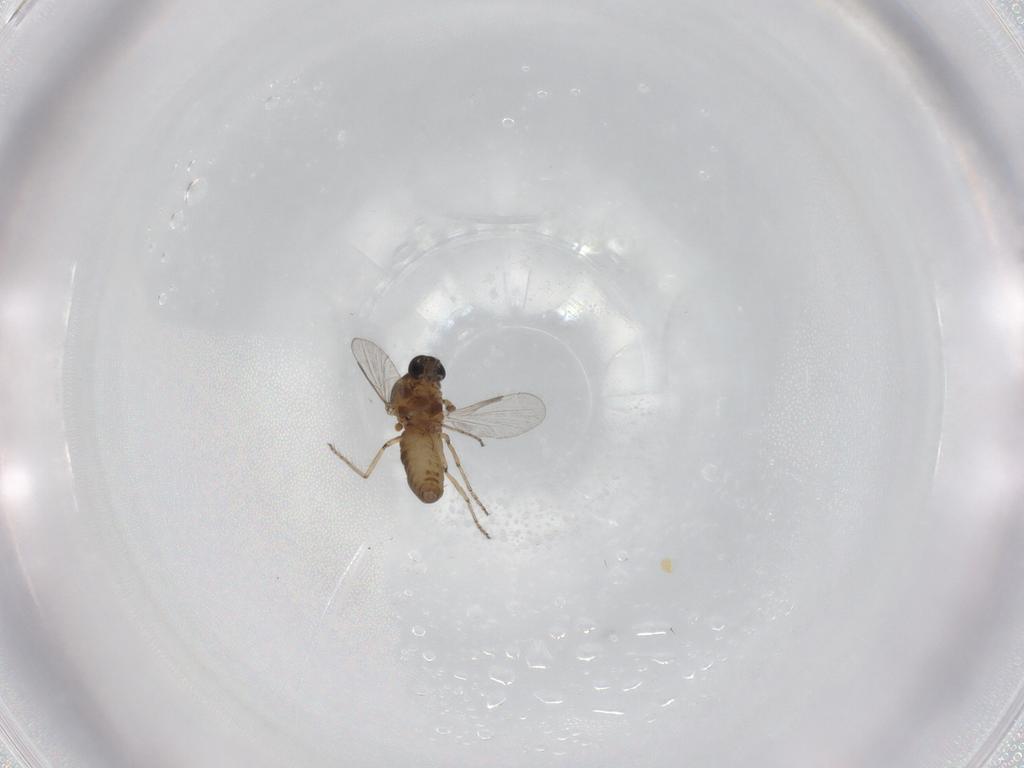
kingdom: Animalia
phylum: Arthropoda
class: Insecta
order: Diptera
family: Ceratopogonidae
